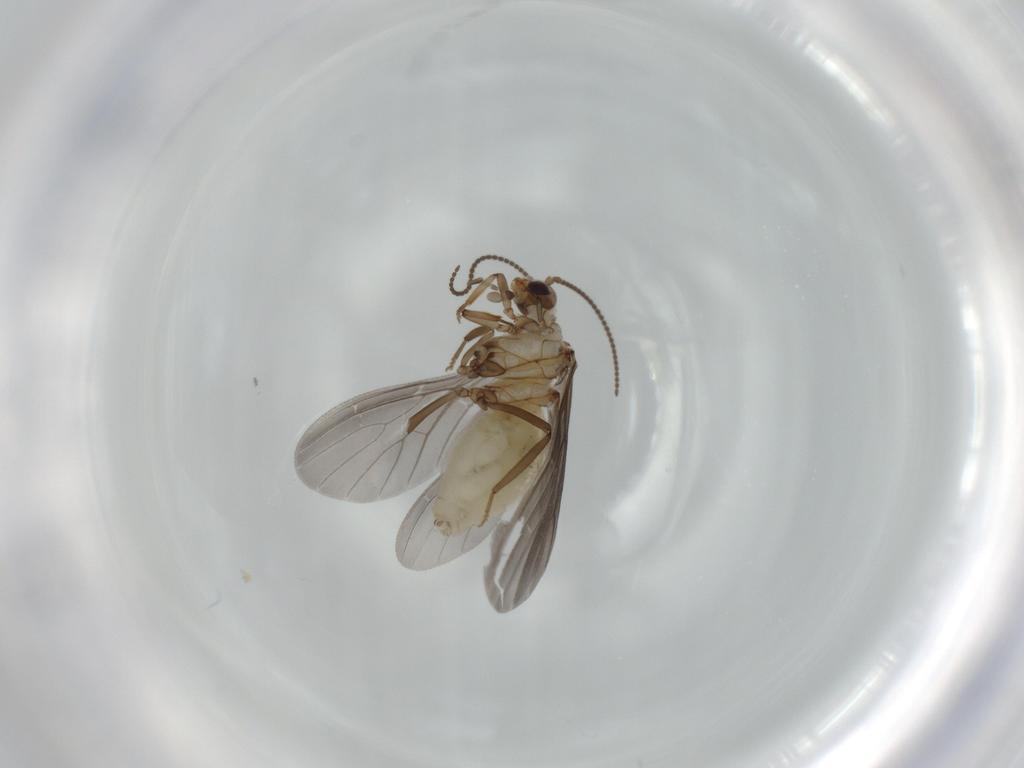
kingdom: Animalia
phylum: Arthropoda
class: Insecta
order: Neuroptera
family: Coniopterygidae
